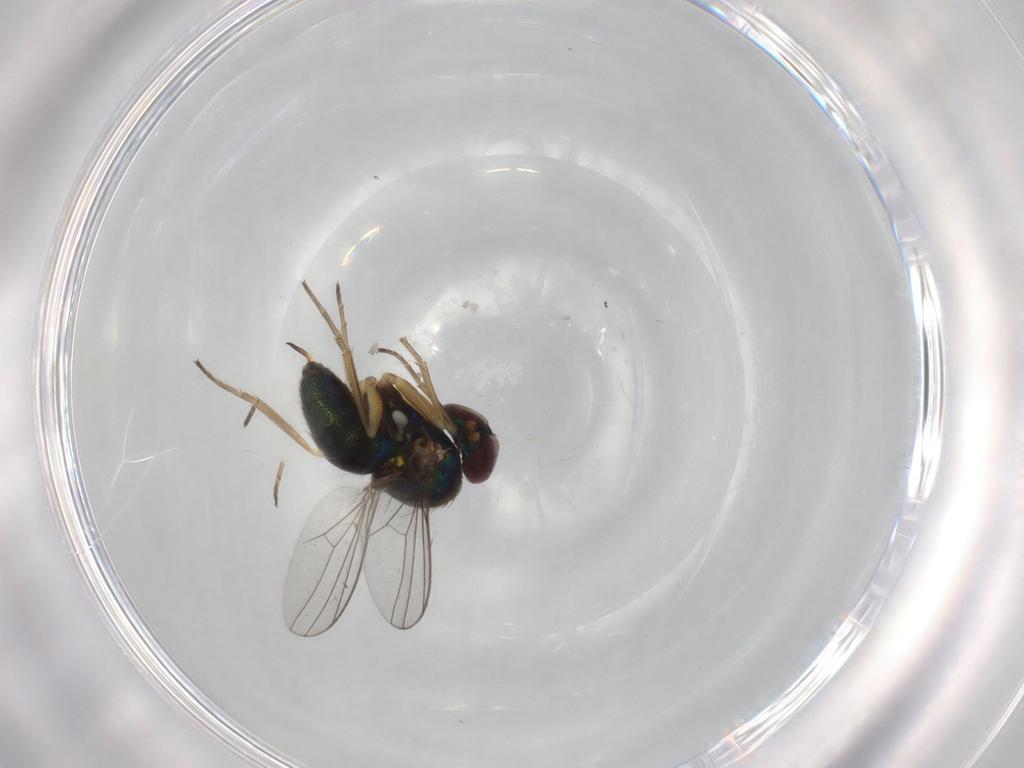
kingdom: Animalia
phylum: Arthropoda
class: Insecta
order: Diptera
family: Dolichopodidae
